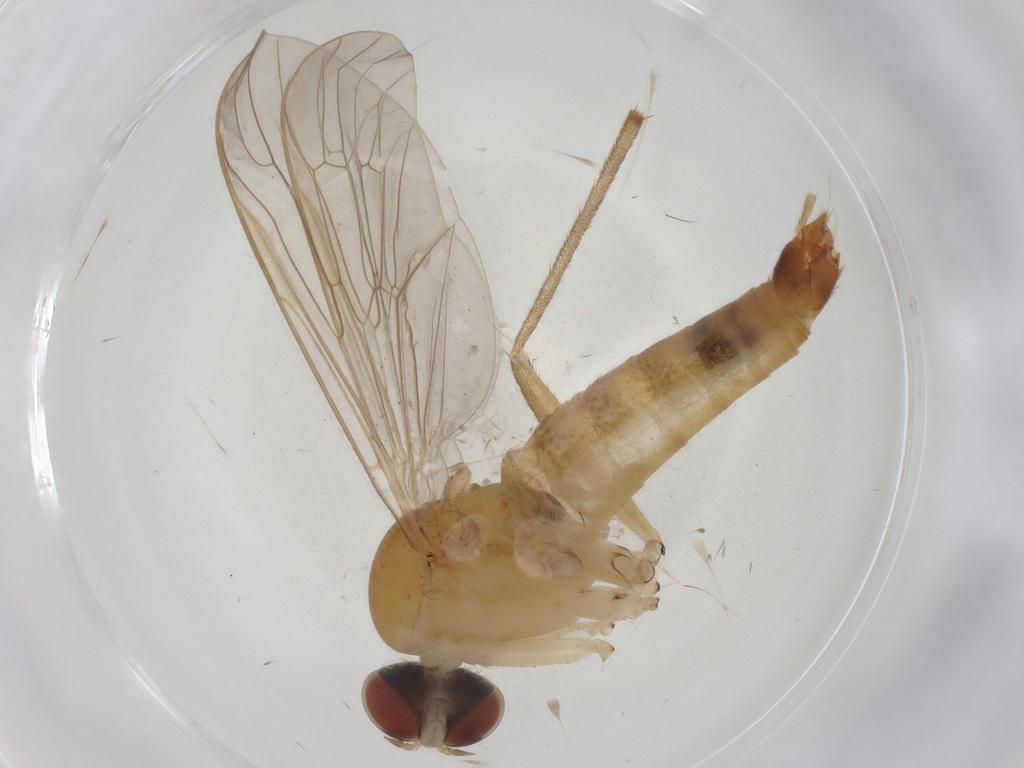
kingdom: Animalia
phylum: Arthropoda
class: Insecta
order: Diptera
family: Apsilocephalidae
